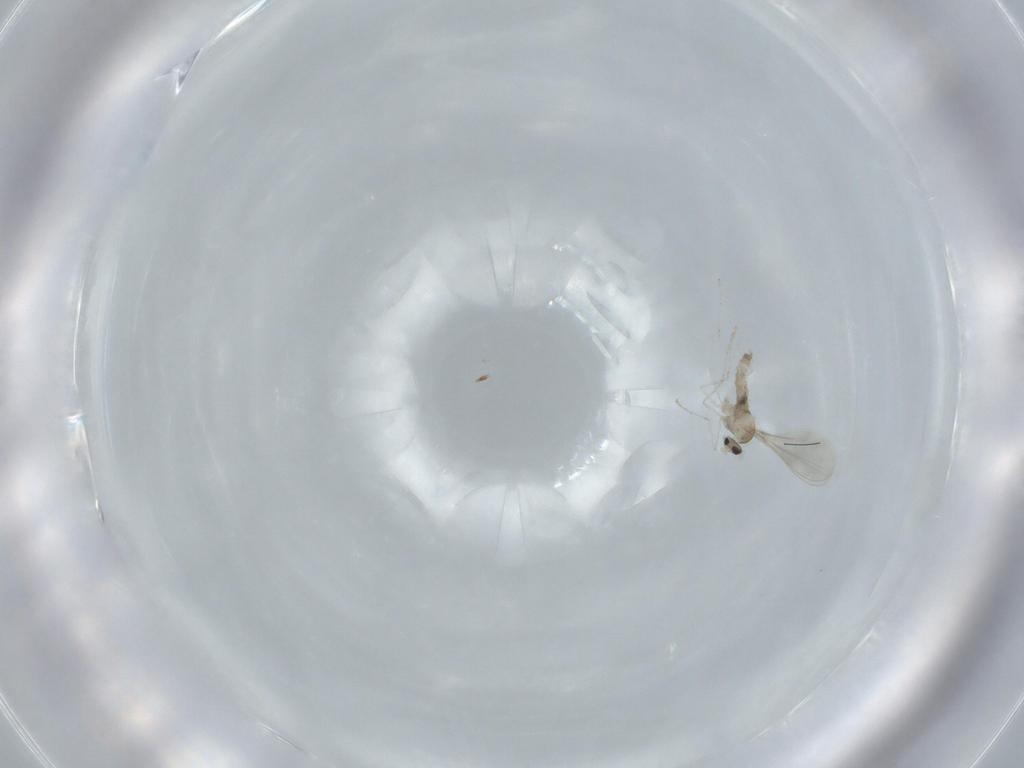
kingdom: Animalia
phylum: Arthropoda
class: Insecta
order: Diptera
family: Cecidomyiidae
